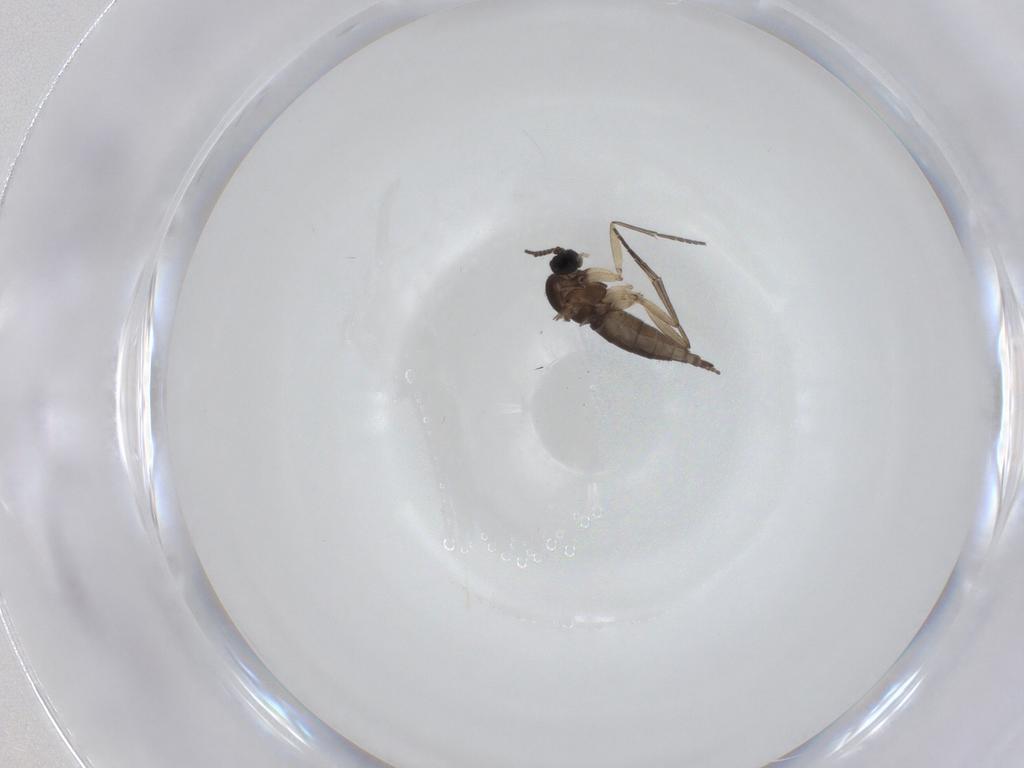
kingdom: Animalia
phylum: Arthropoda
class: Insecta
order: Diptera
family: Sciaridae
